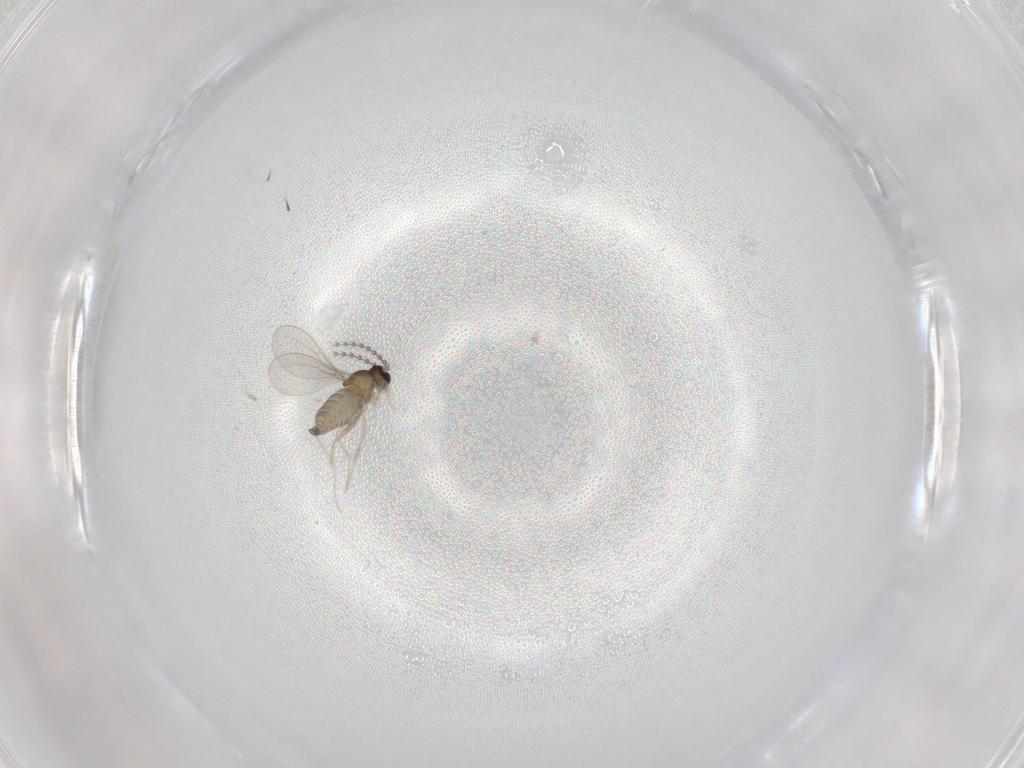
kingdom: Animalia
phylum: Arthropoda
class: Insecta
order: Diptera
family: Cecidomyiidae
